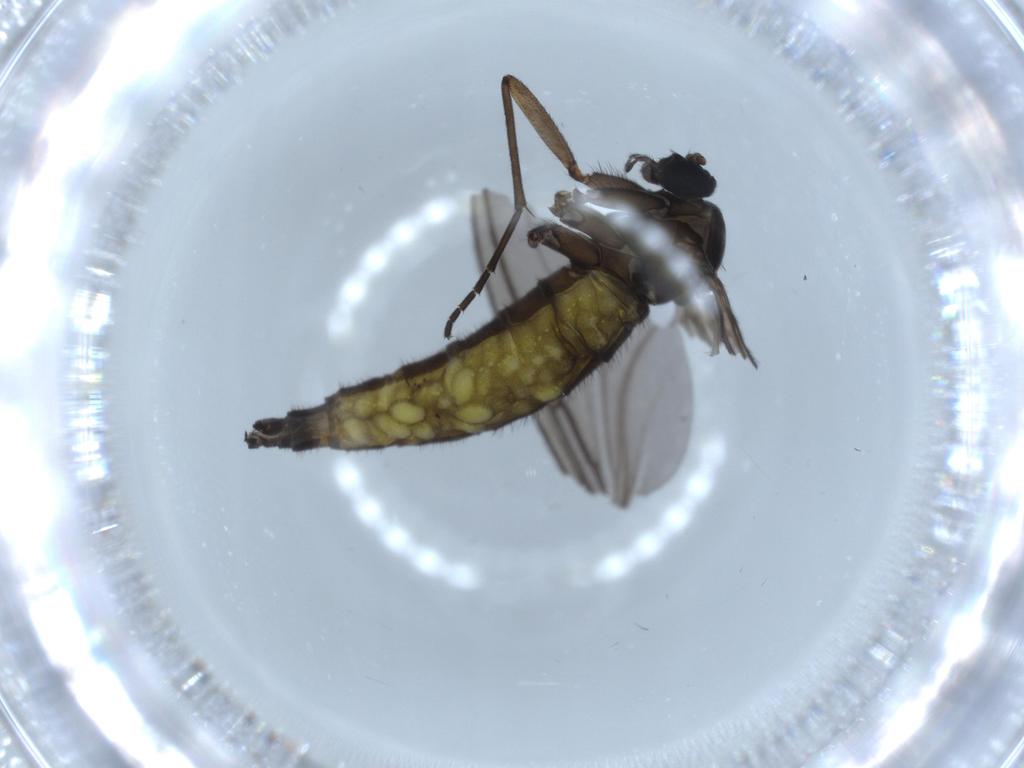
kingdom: Animalia
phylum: Arthropoda
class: Insecta
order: Diptera
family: Sciaridae
